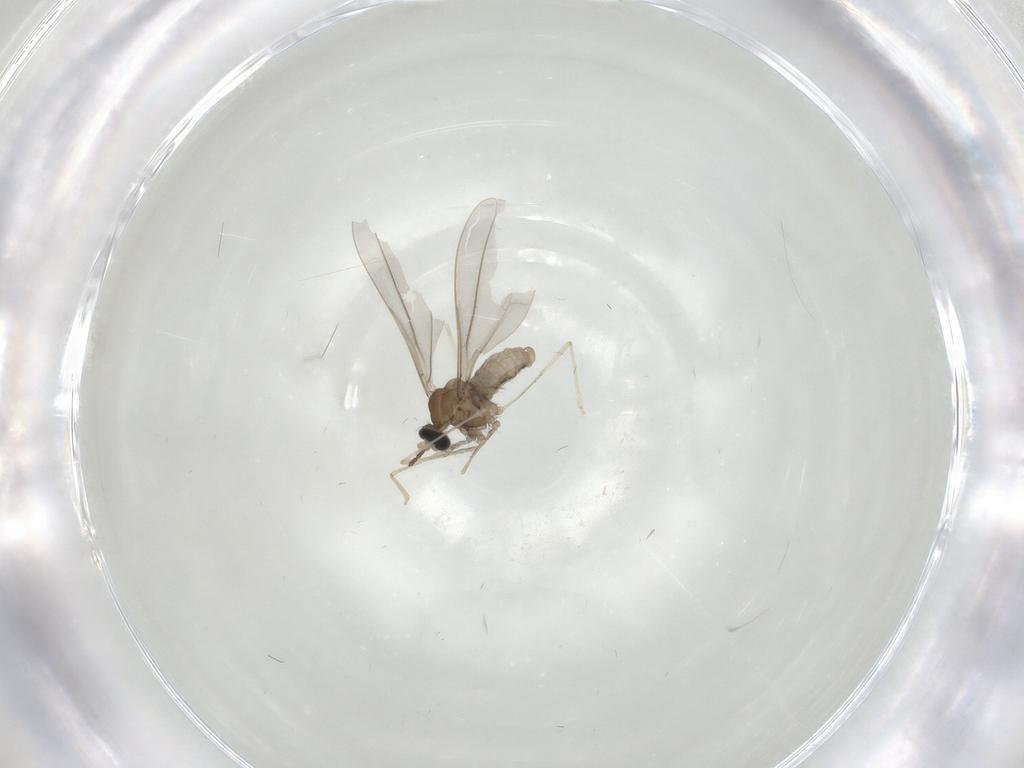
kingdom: Animalia
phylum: Arthropoda
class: Insecta
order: Diptera
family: Cecidomyiidae
